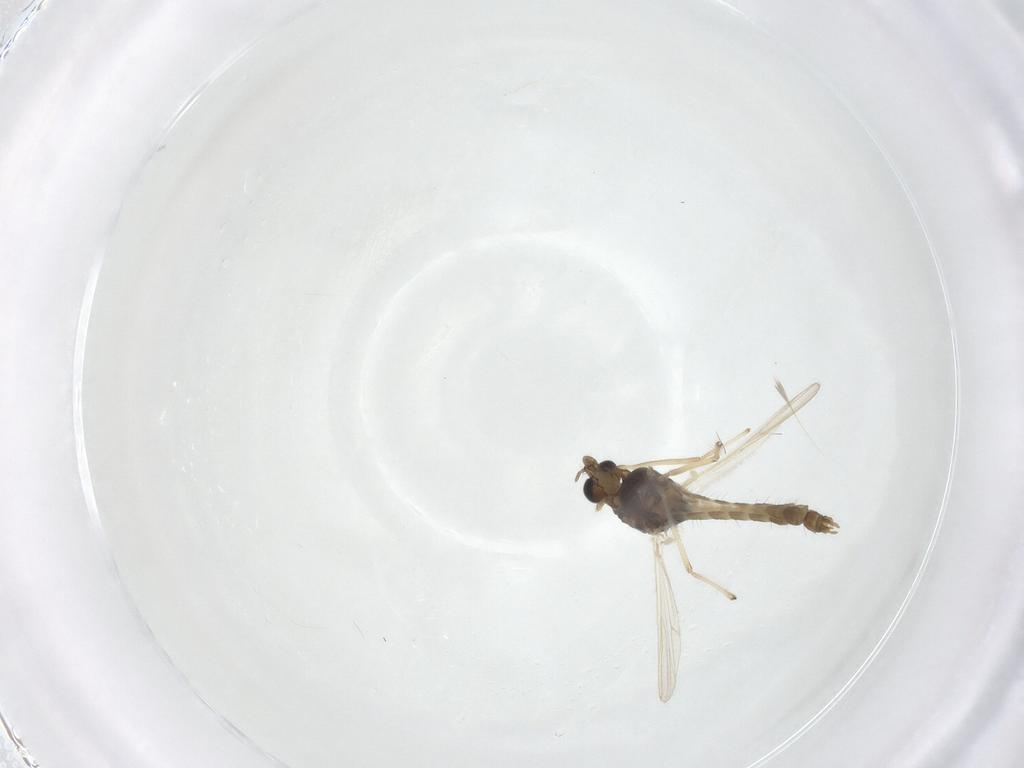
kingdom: Animalia
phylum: Arthropoda
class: Insecta
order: Diptera
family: Chironomidae
